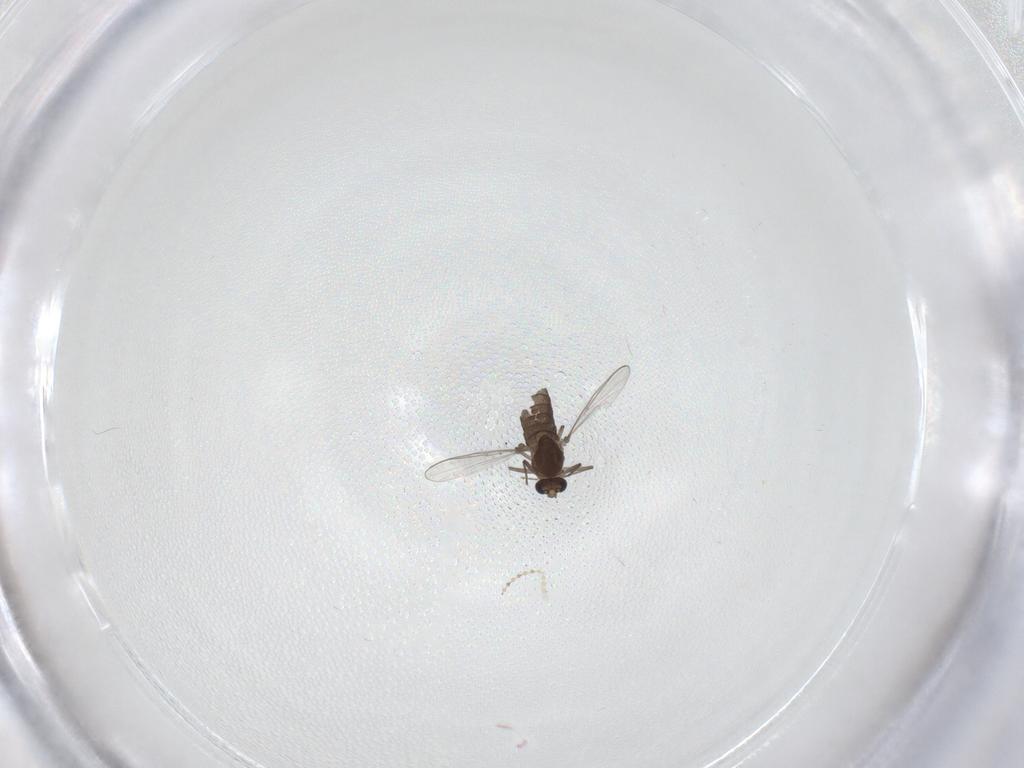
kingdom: Animalia
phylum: Arthropoda
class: Insecta
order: Diptera
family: Chironomidae
